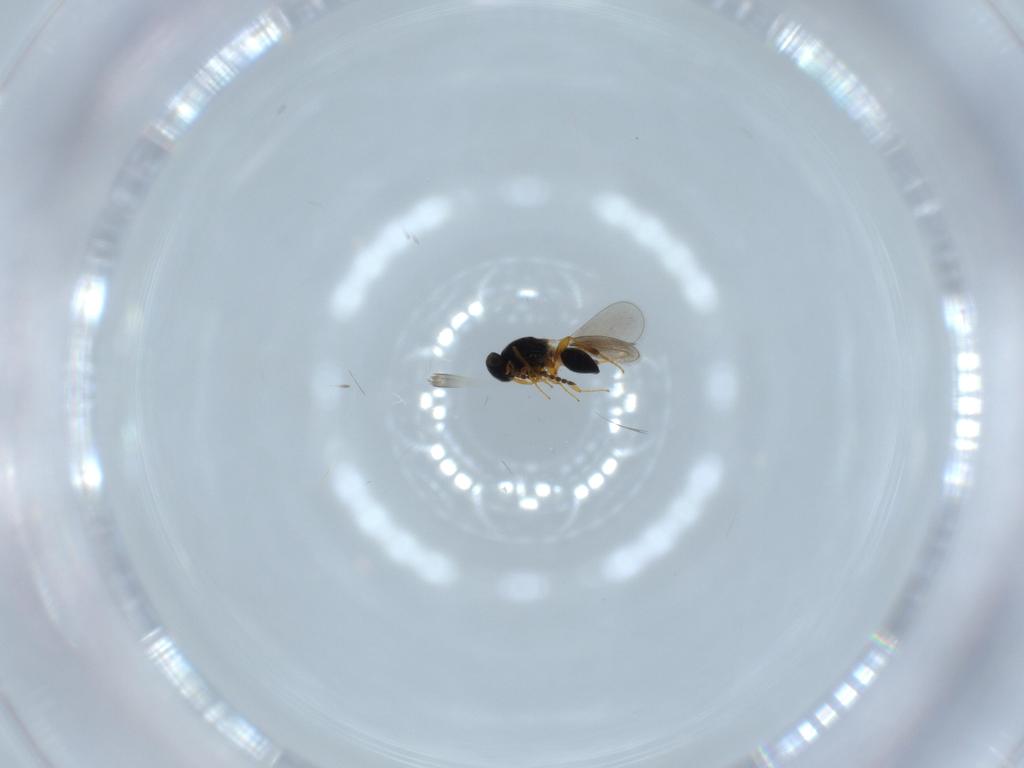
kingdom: Animalia
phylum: Arthropoda
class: Insecta
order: Hymenoptera
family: Platygastridae
